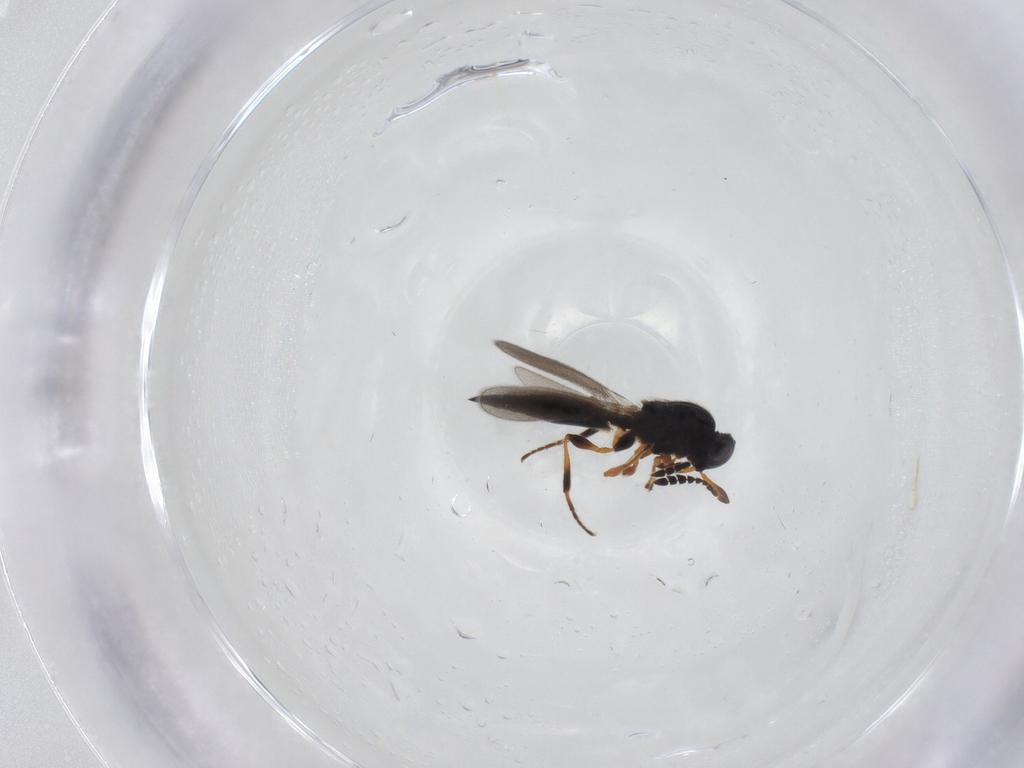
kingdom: Animalia
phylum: Arthropoda
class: Insecta
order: Hymenoptera
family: Platygastridae
